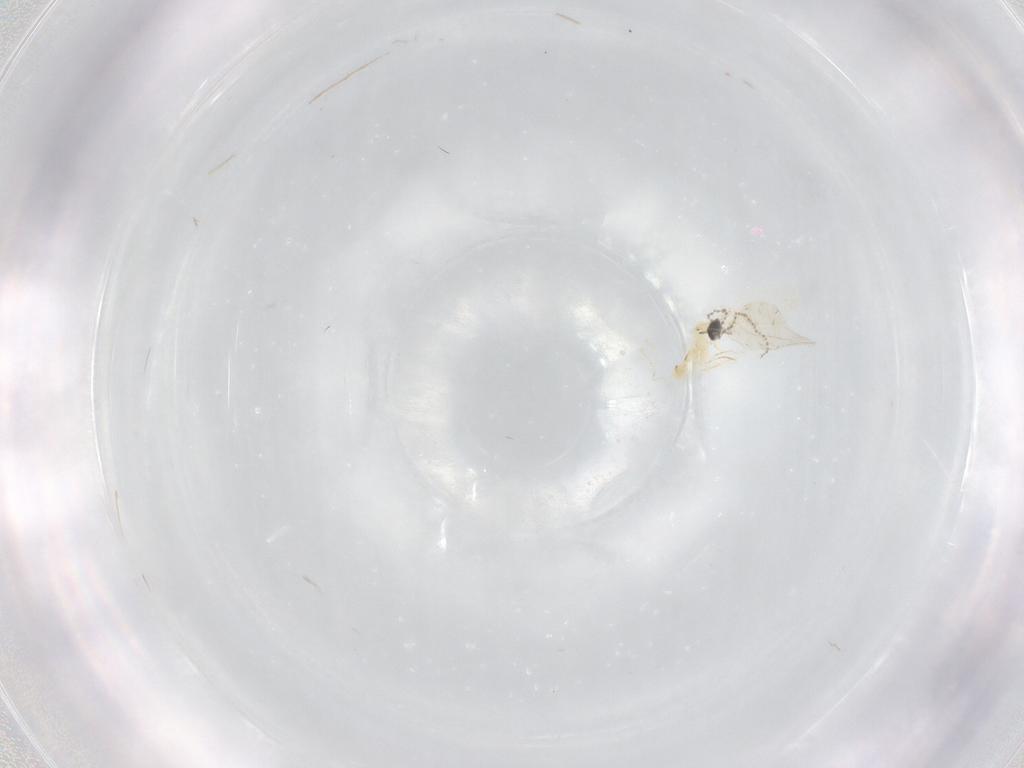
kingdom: Animalia
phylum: Arthropoda
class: Insecta
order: Diptera
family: Cecidomyiidae
